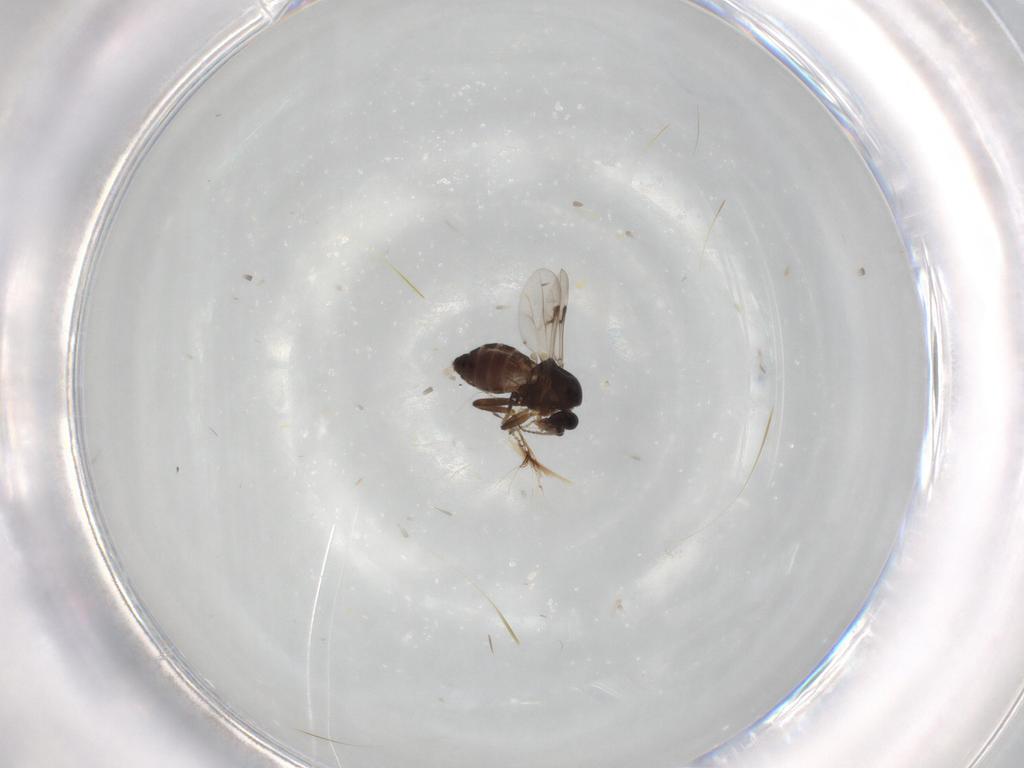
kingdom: Animalia
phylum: Arthropoda
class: Insecta
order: Diptera
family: Ceratopogonidae
